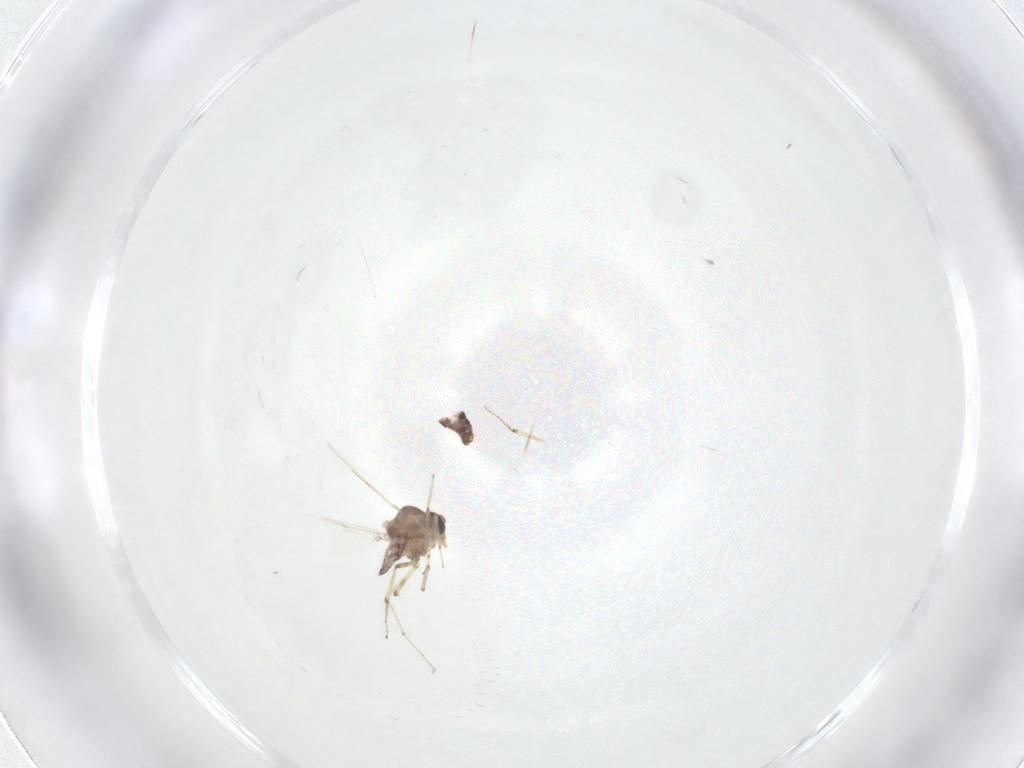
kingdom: Animalia
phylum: Arthropoda
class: Insecta
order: Diptera
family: Ceratopogonidae
